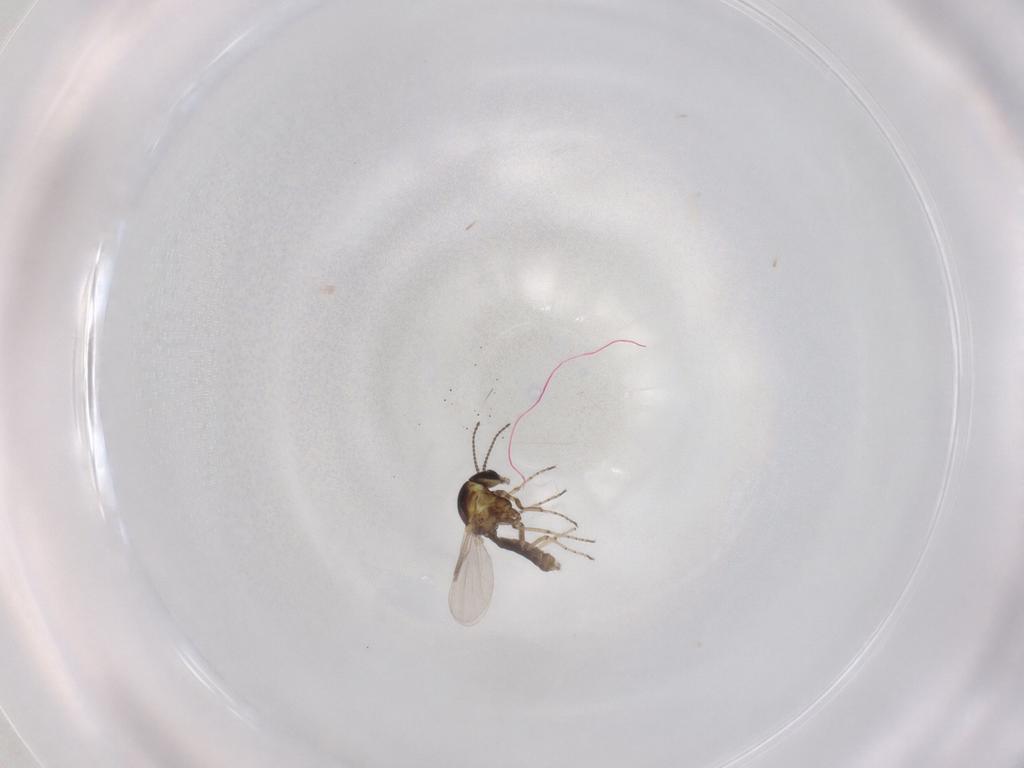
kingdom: Animalia
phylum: Arthropoda
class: Insecta
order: Diptera
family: Ceratopogonidae
